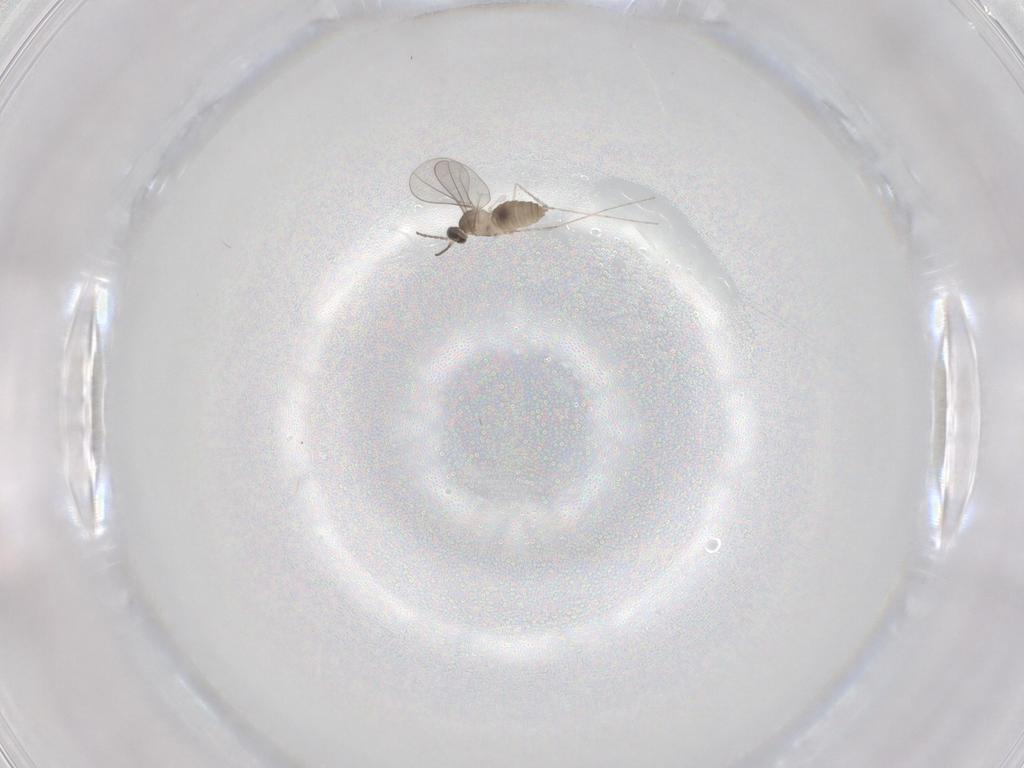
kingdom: Animalia
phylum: Arthropoda
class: Insecta
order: Diptera
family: Cecidomyiidae
